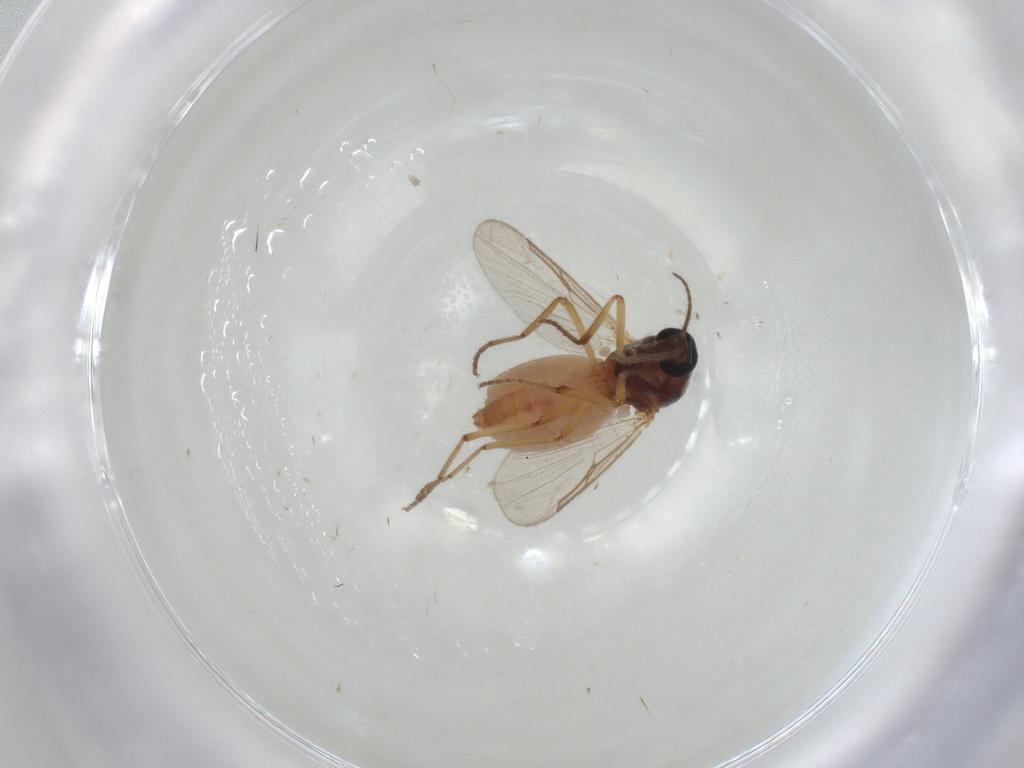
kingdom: Animalia
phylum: Arthropoda
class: Insecta
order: Diptera
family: Ceratopogonidae
